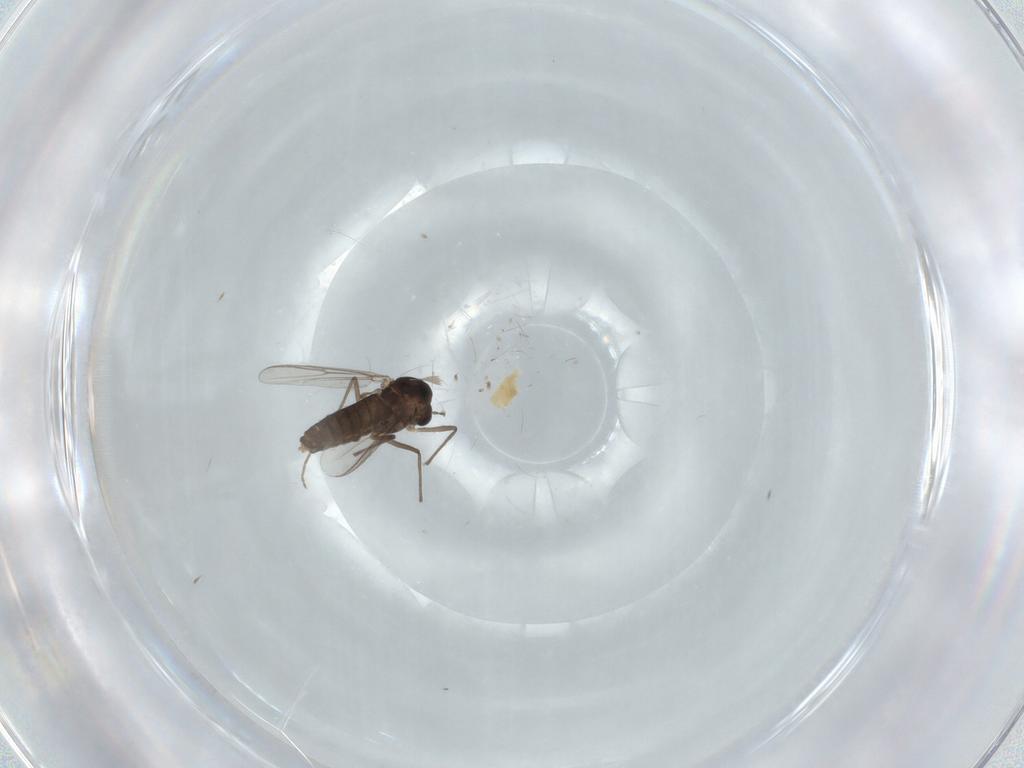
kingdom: Animalia
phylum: Arthropoda
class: Insecta
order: Diptera
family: Chironomidae
